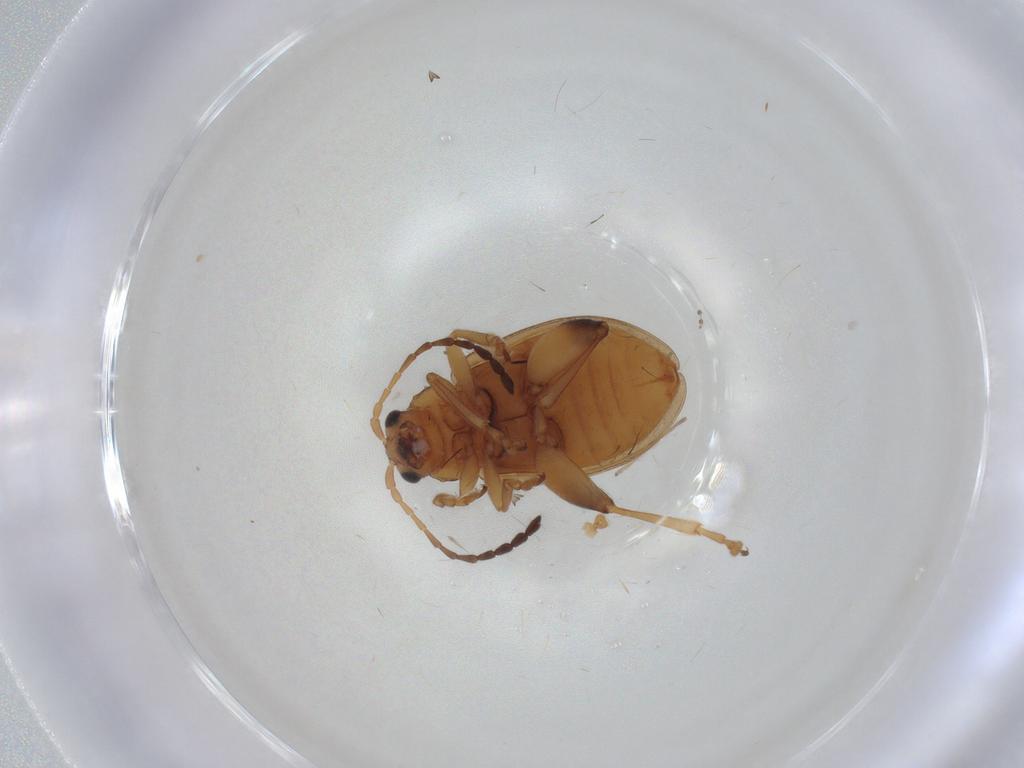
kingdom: Animalia
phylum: Arthropoda
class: Insecta
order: Coleoptera
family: Chrysomelidae
